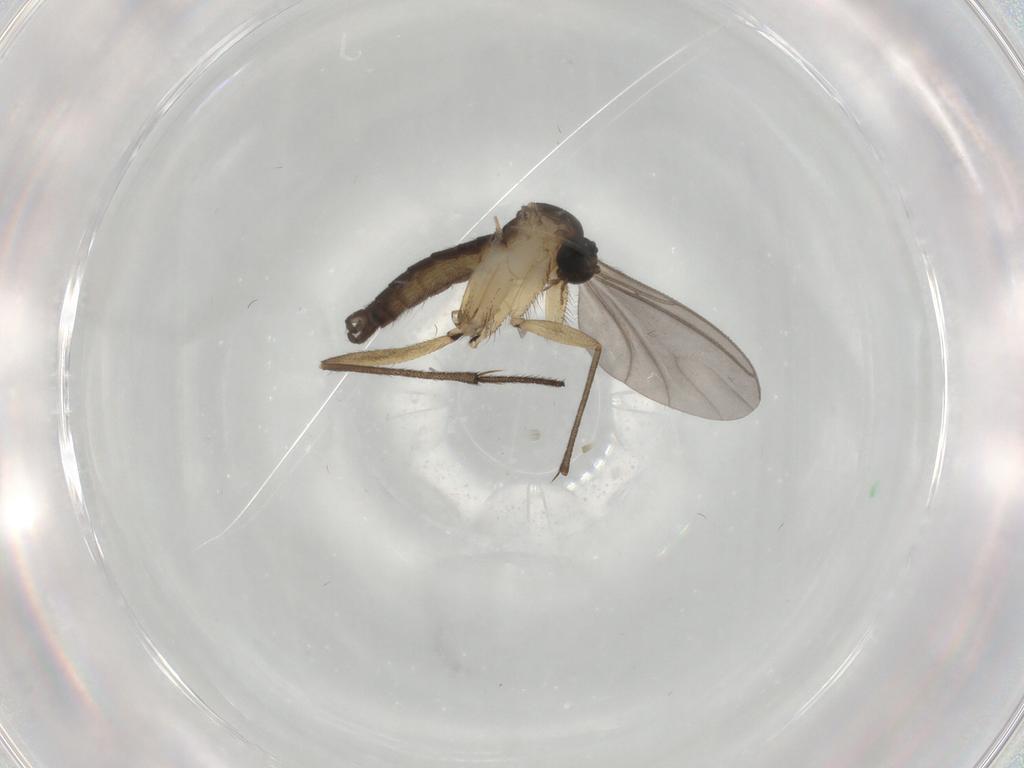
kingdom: Animalia
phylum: Arthropoda
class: Insecta
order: Diptera
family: Sciaridae
